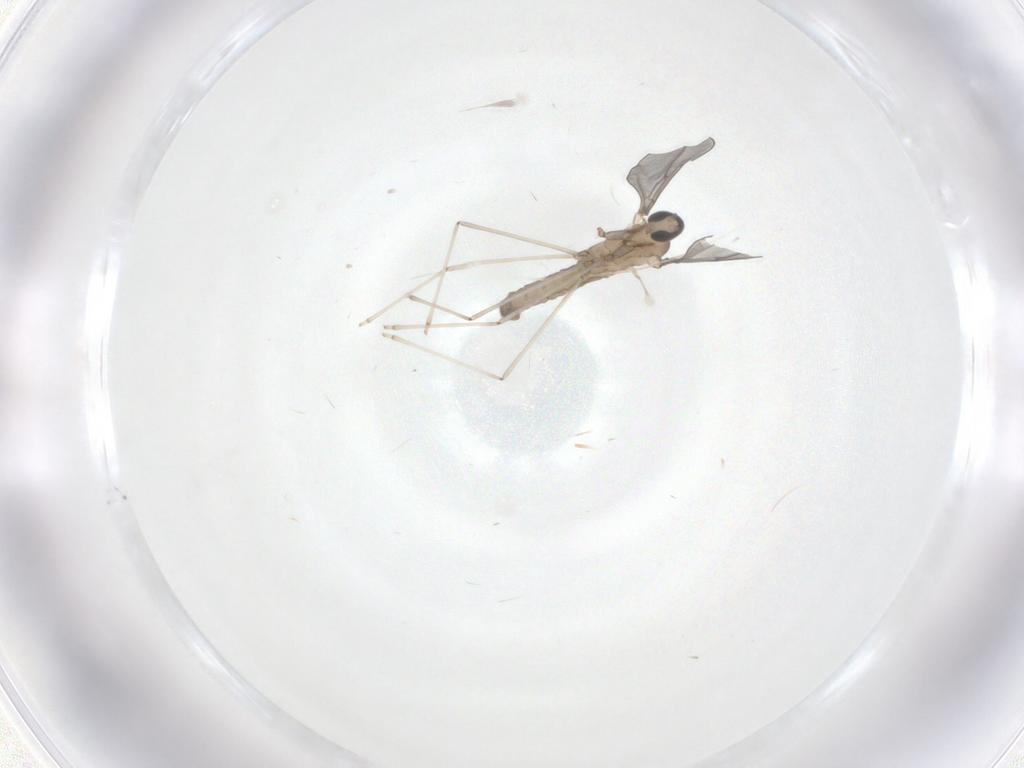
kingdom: Animalia
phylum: Arthropoda
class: Insecta
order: Diptera
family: Cecidomyiidae
